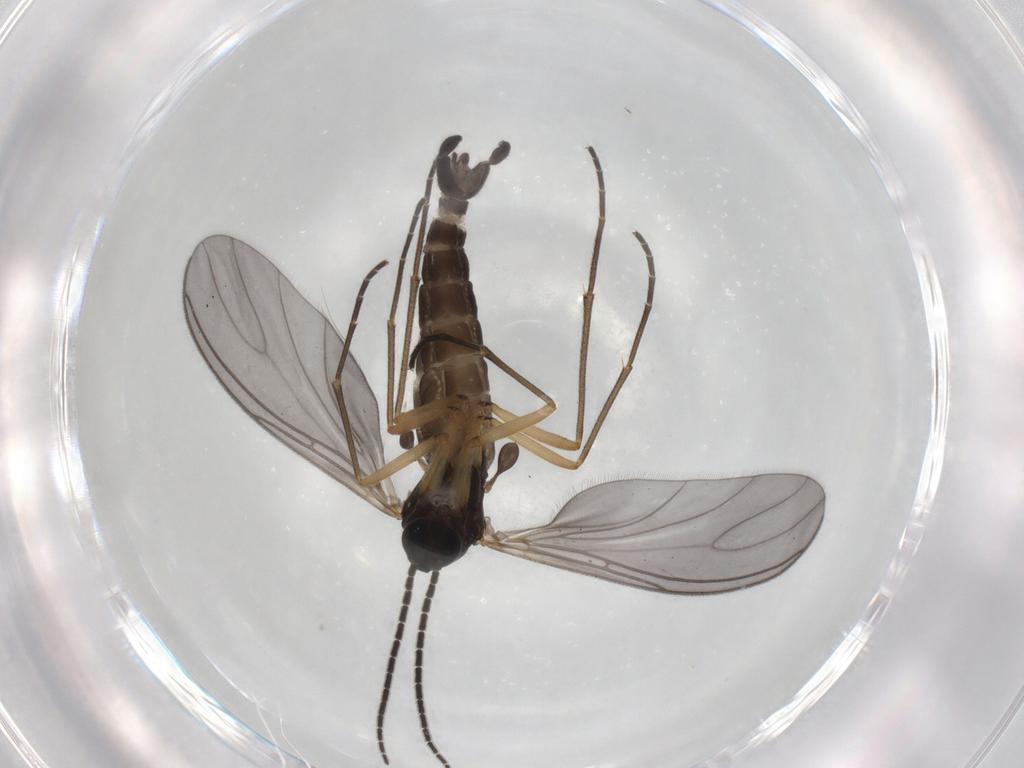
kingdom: Animalia
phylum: Arthropoda
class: Insecta
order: Diptera
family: Sciaridae
